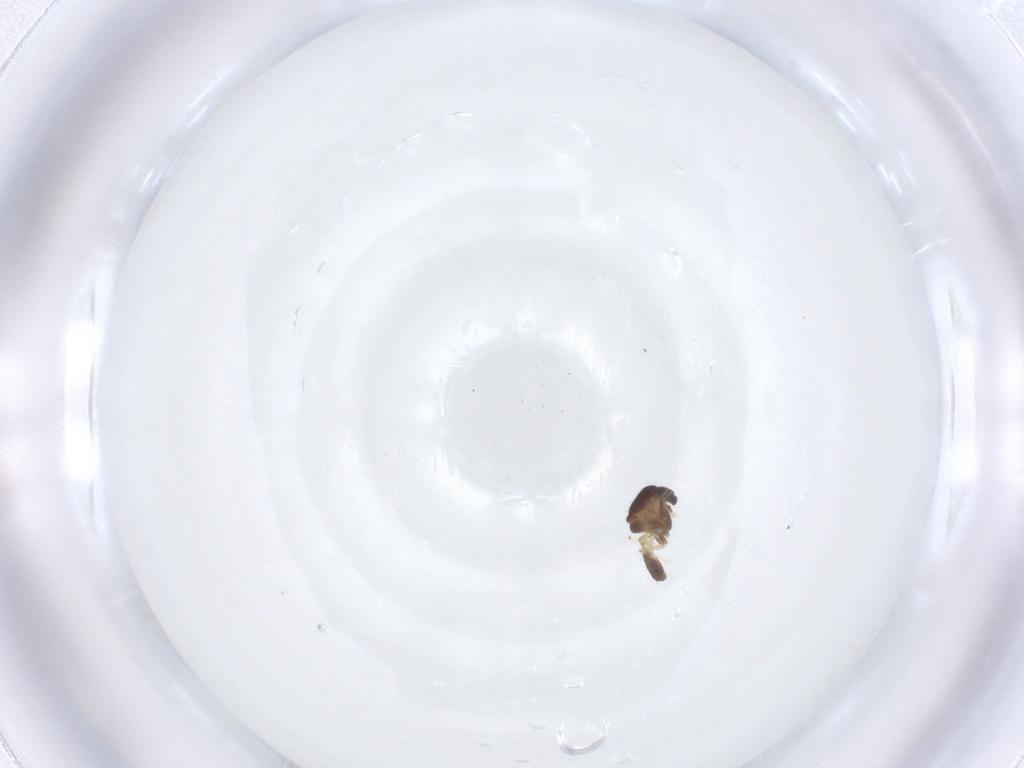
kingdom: Animalia
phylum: Arthropoda
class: Insecta
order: Diptera
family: Chironomidae
